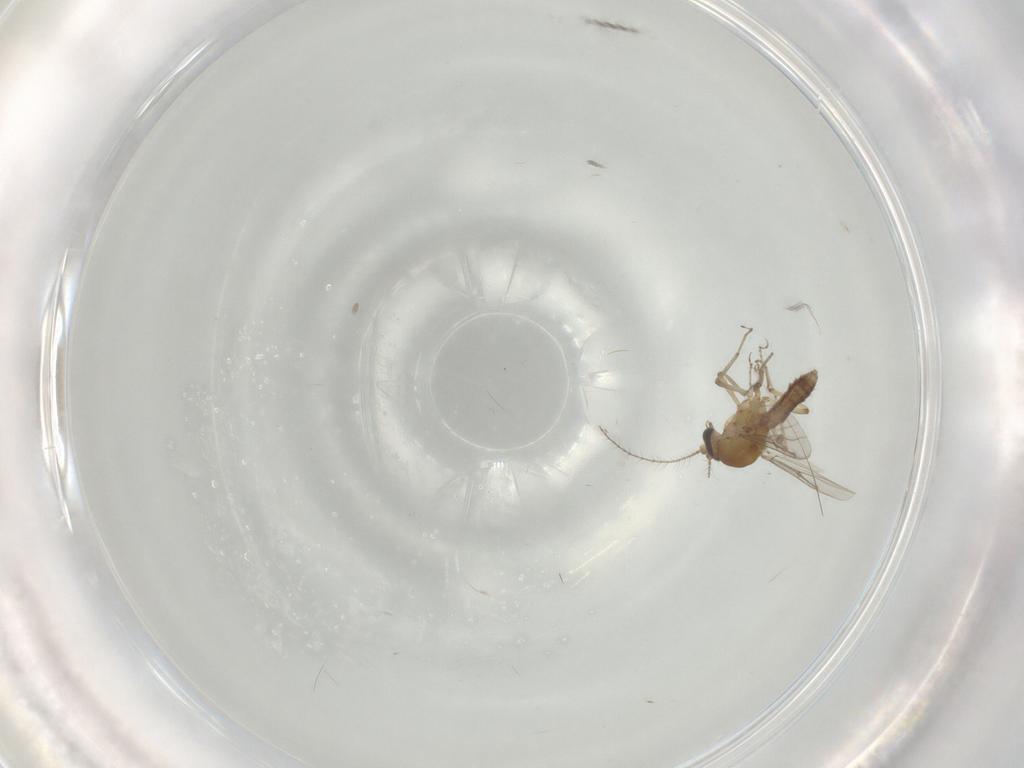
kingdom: Animalia
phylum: Arthropoda
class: Insecta
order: Diptera
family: Ceratopogonidae
